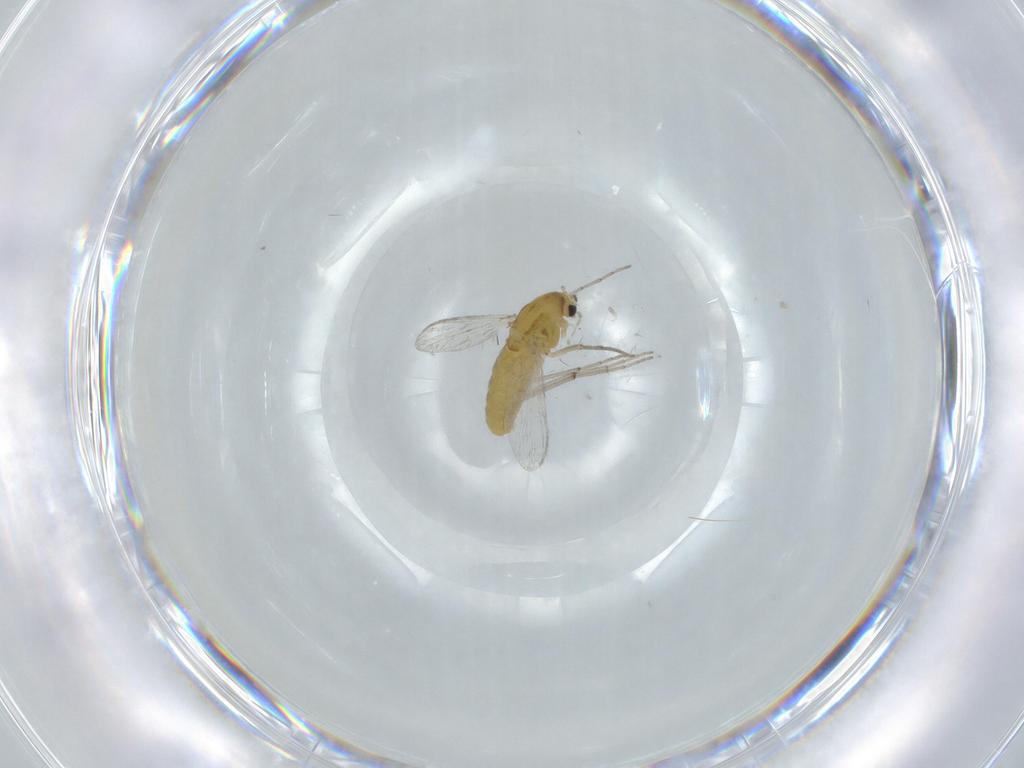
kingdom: Animalia
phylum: Arthropoda
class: Insecta
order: Diptera
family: Chironomidae
